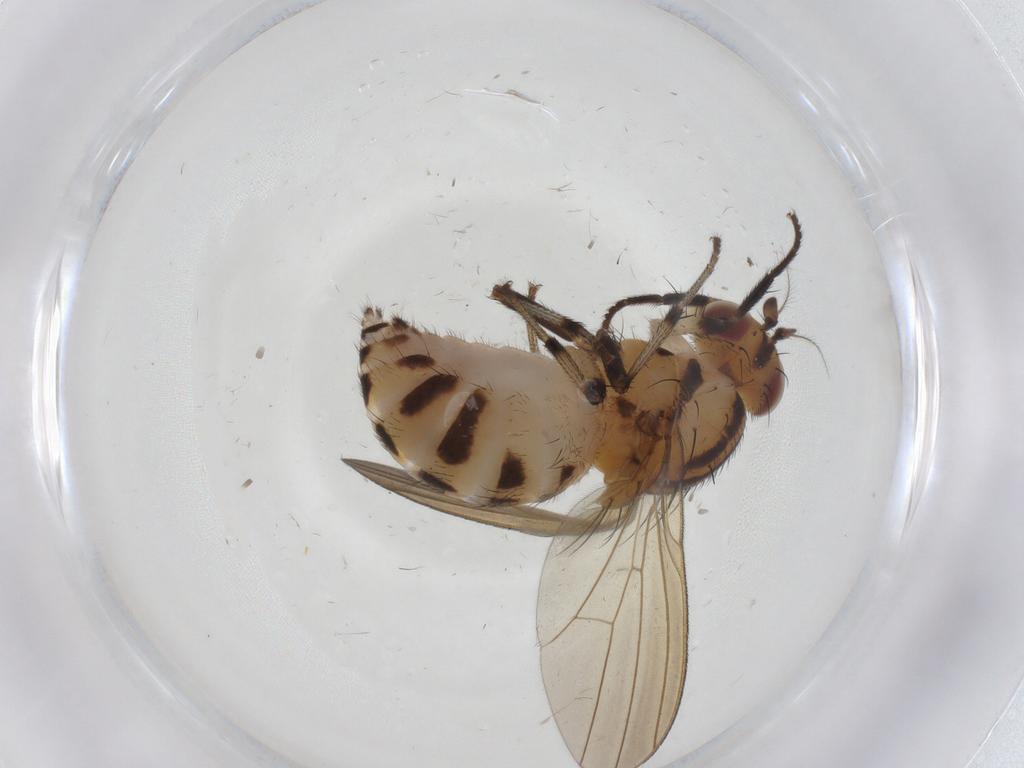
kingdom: Animalia
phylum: Arthropoda
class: Insecta
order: Diptera
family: Lauxaniidae
